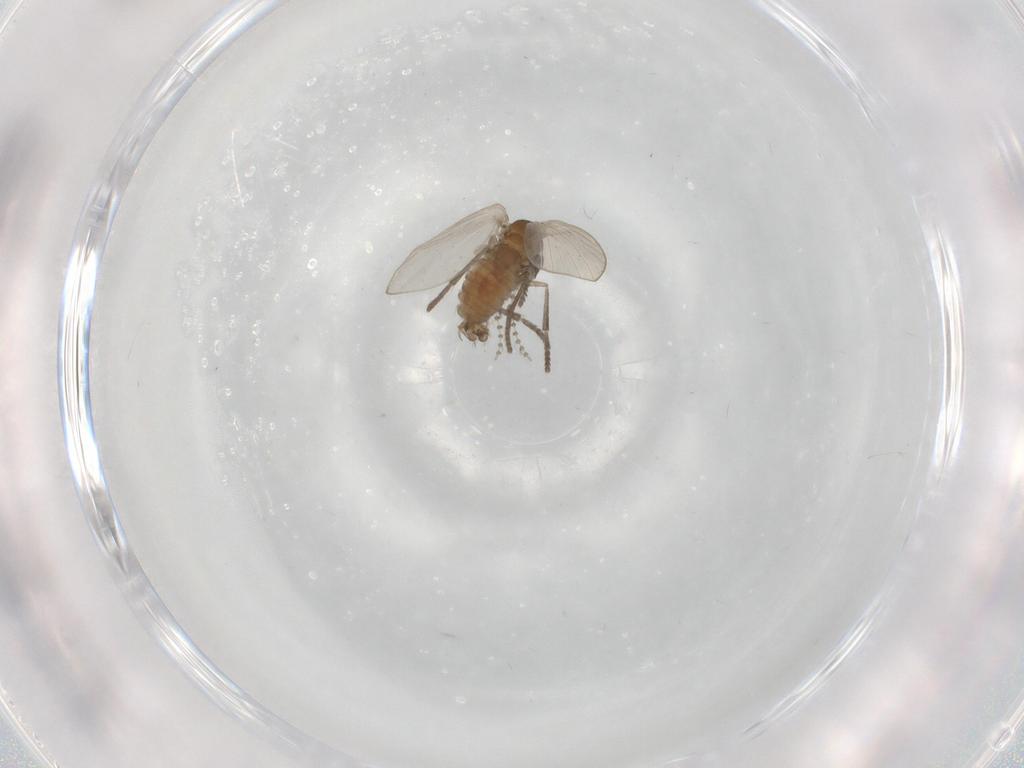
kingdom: Animalia
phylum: Arthropoda
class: Insecta
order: Diptera
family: Psychodidae
